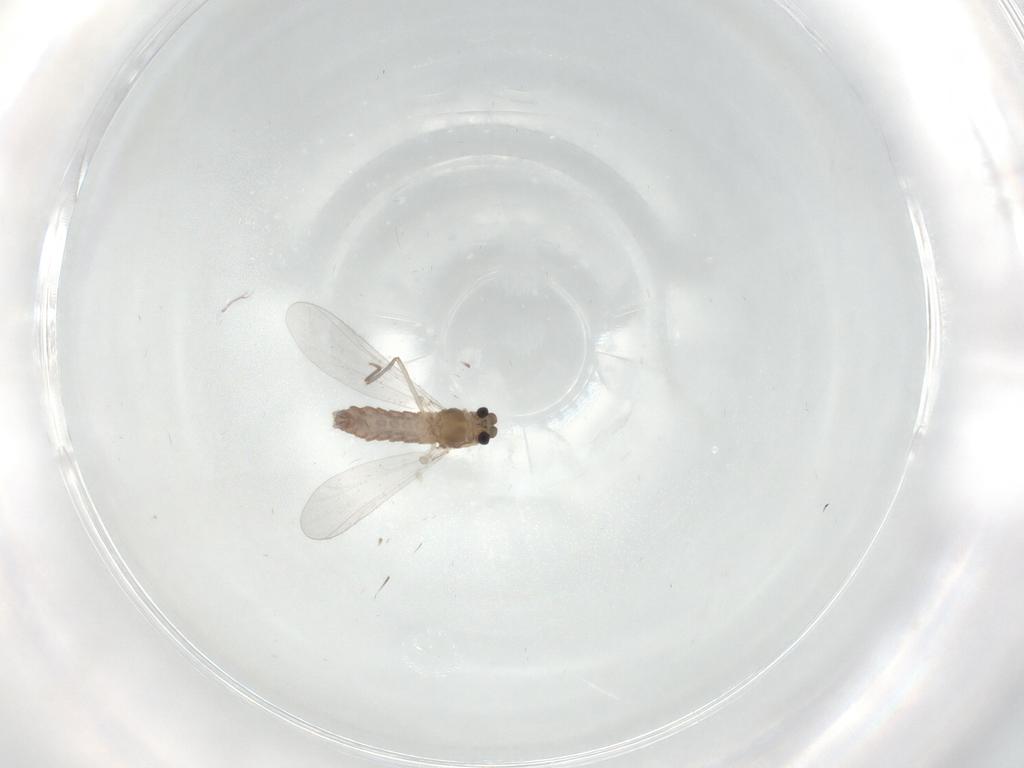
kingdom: Animalia
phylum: Arthropoda
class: Insecta
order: Diptera
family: Chironomidae
